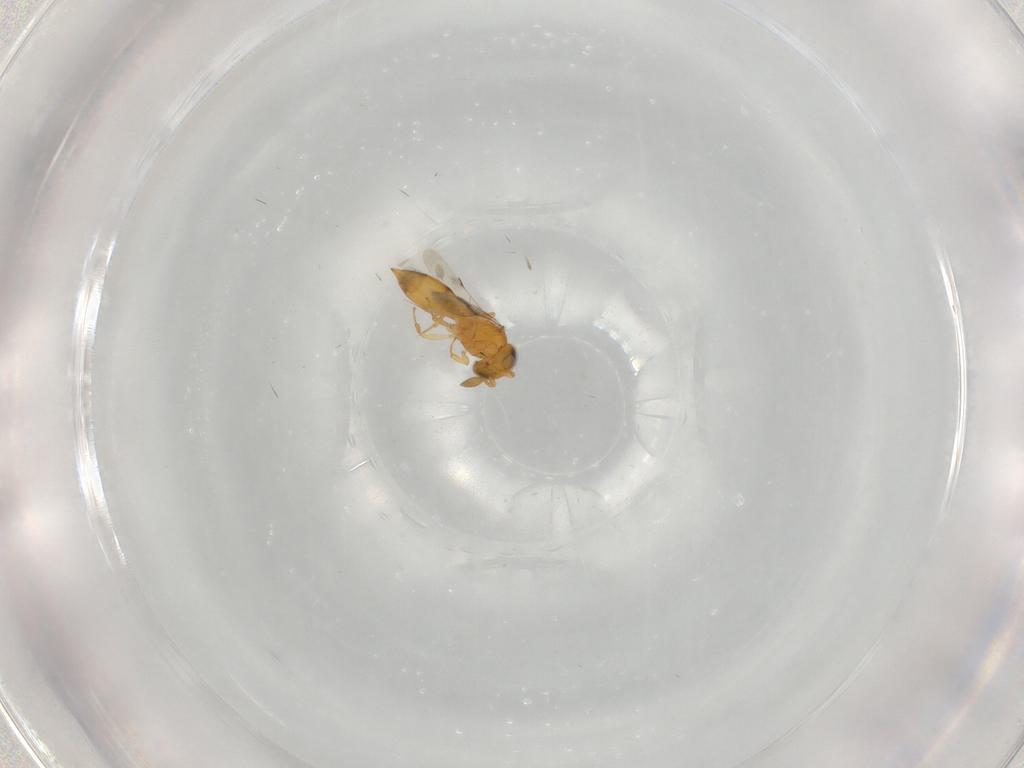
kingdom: Animalia
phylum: Arthropoda
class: Insecta
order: Hymenoptera
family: Scelionidae
